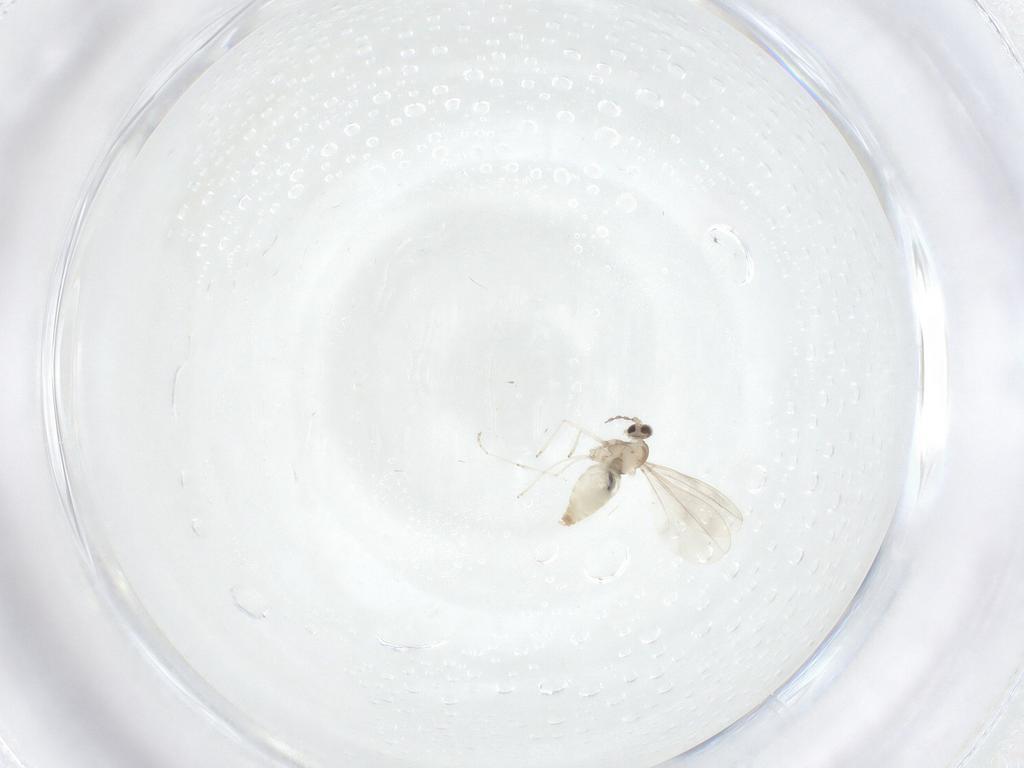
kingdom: Animalia
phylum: Arthropoda
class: Insecta
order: Diptera
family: Cecidomyiidae
